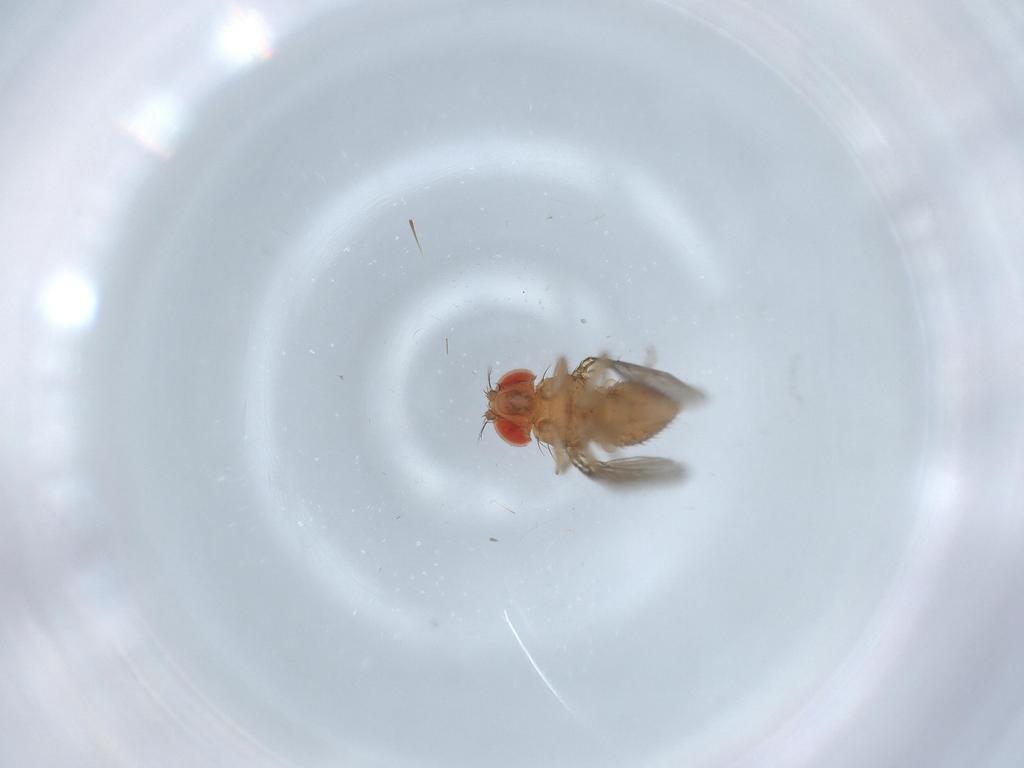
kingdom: Animalia
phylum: Arthropoda
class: Insecta
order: Diptera
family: Drosophilidae
